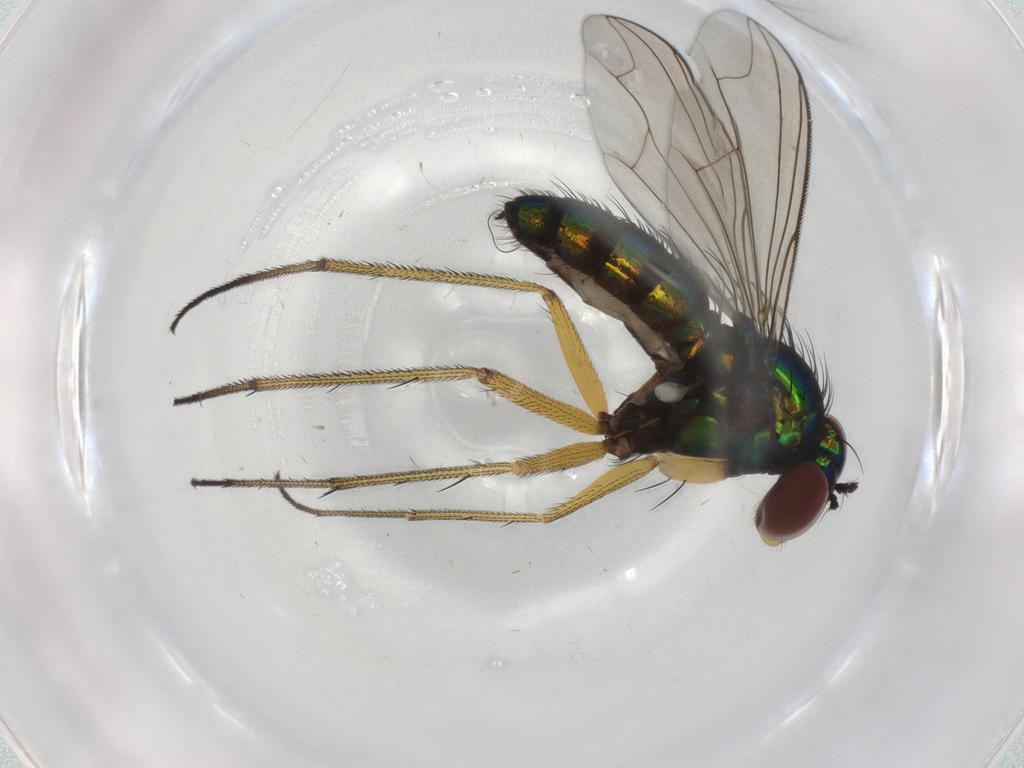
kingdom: Animalia
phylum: Arthropoda
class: Insecta
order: Diptera
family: Dolichopodidae
